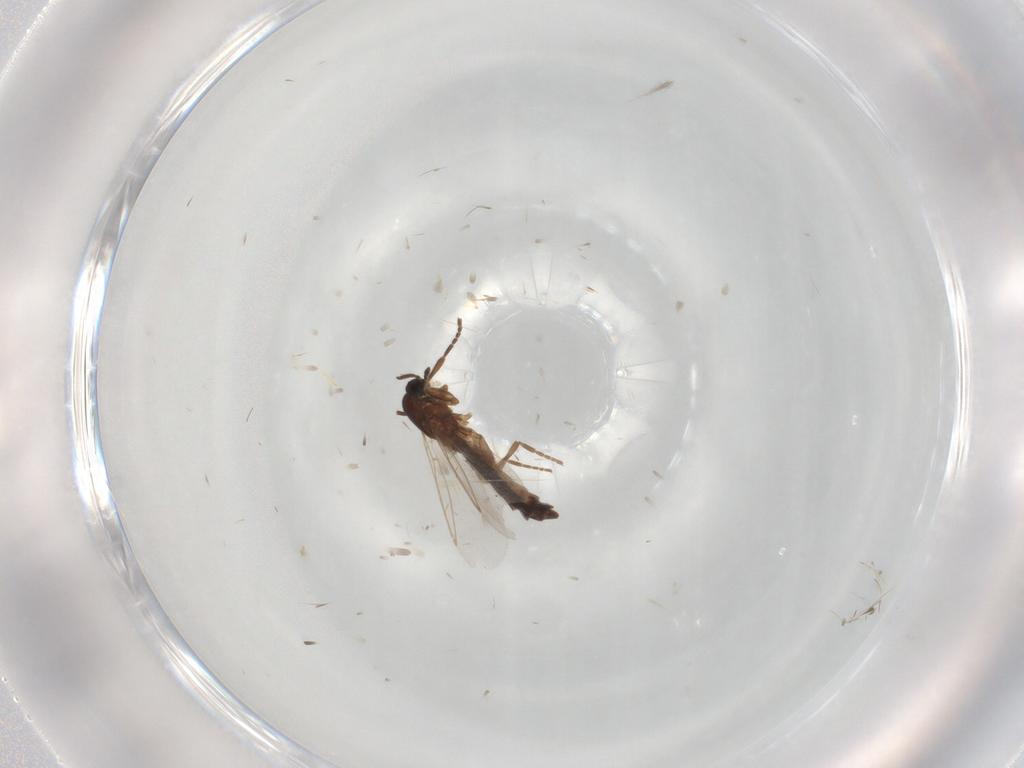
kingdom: Animalia
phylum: Arthropoda
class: Insecta
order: Diptera
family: Scatopsidae
